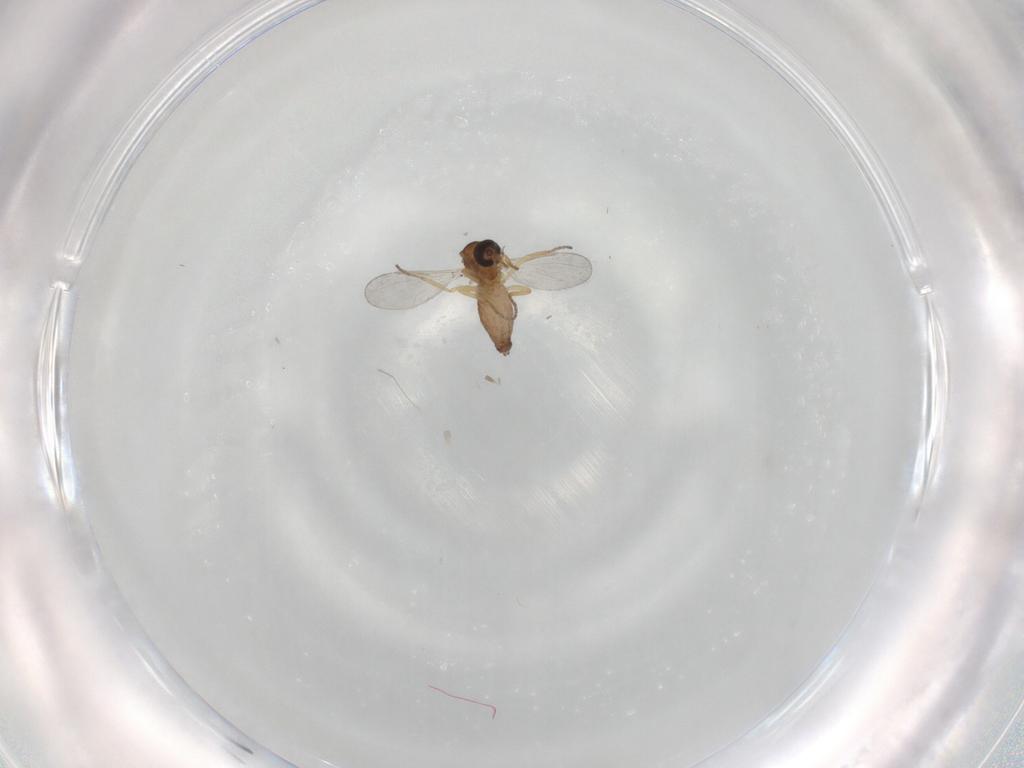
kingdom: Animalia
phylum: Arthropoda
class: Insecta
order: Diptera
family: Ceratopogonidae
